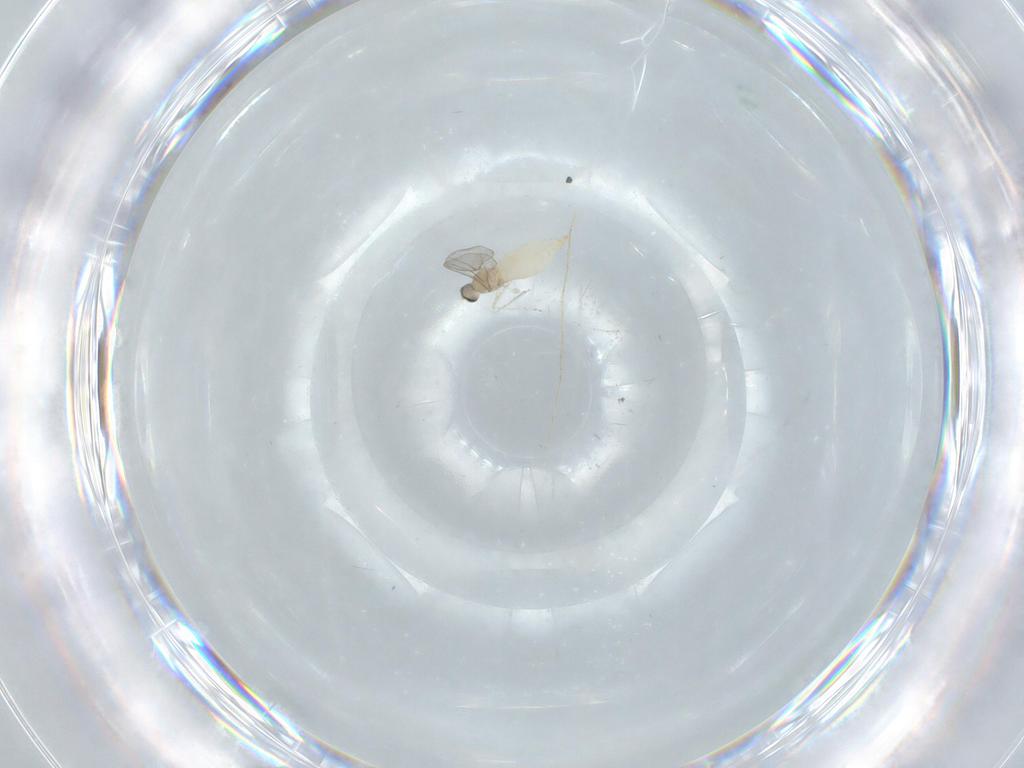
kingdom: Animalia
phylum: Arthropoda
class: Insecta
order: Diptera
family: Cecidomyiidae
